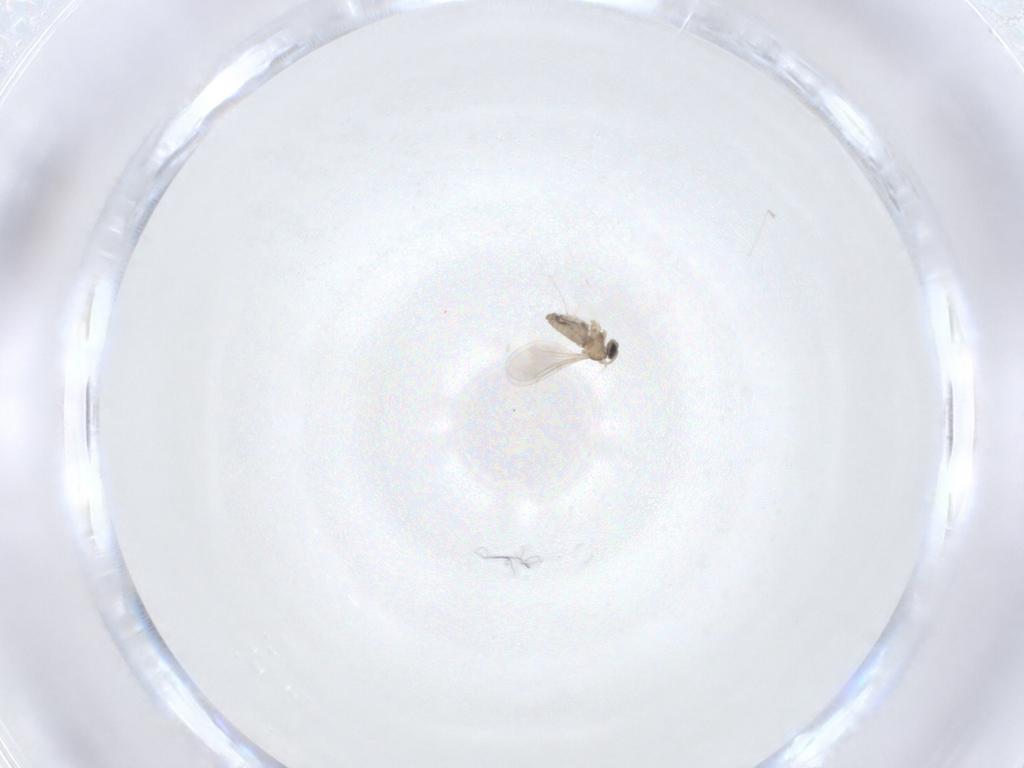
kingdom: Animalia
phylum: Arthropoda
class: Insecta
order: Diptera
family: Cecidomyiidae
